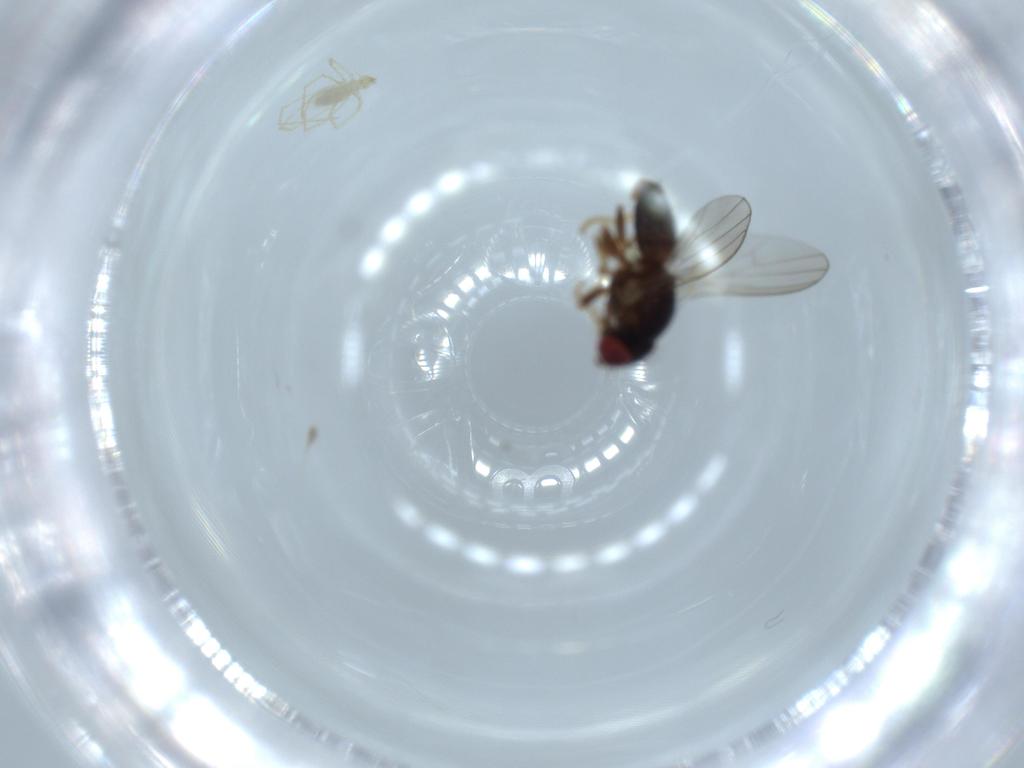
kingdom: Animalia
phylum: Arthropoda
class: Insecta
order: Diptera
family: Chamaemyiidae
